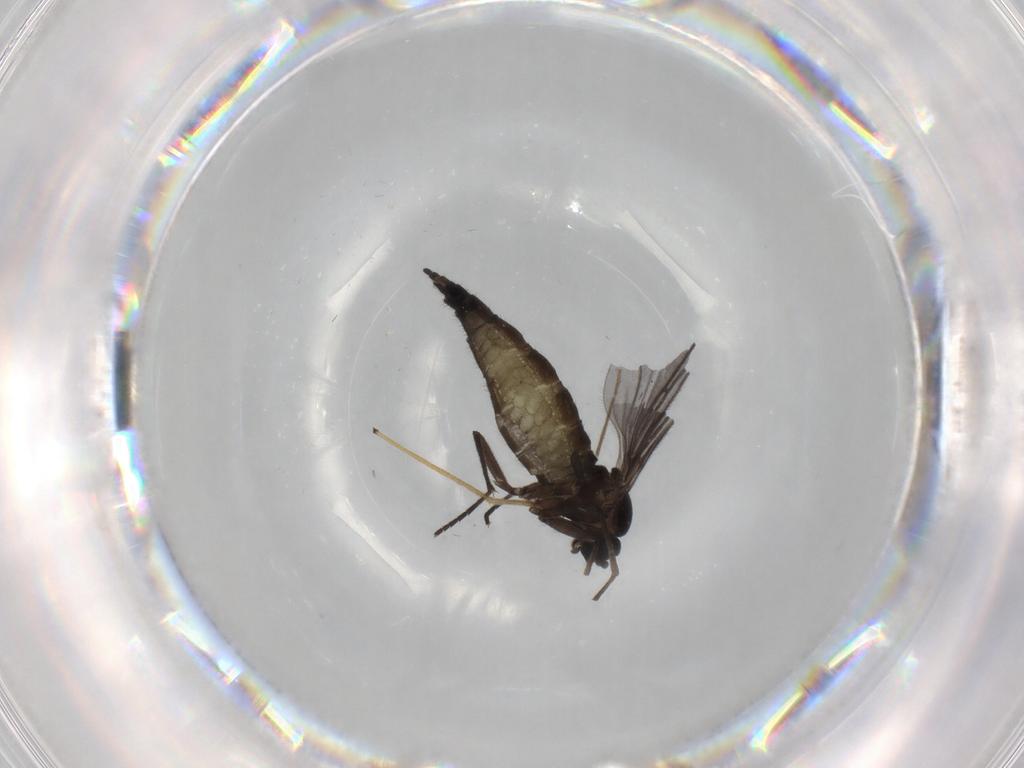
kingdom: Animalia
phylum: Arthropoda
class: Insecta
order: Diptera
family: Sciaridae
